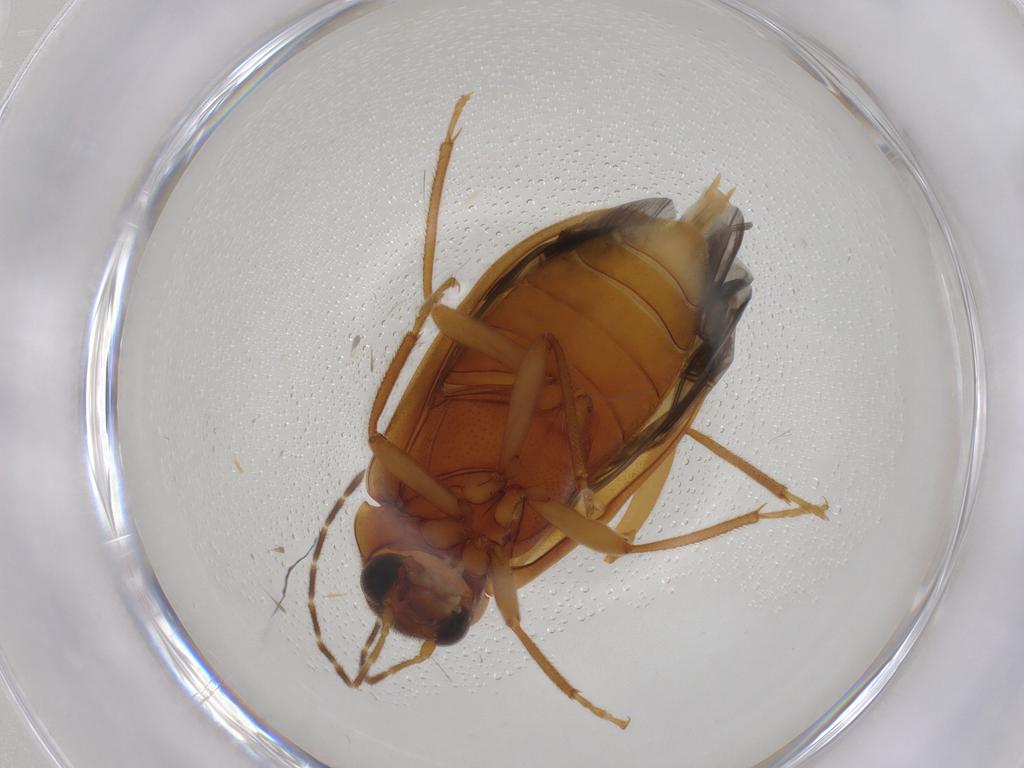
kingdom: Animalia
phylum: Arthropoda
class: Insecta
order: Coleoptera
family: Ptilodactylidae
